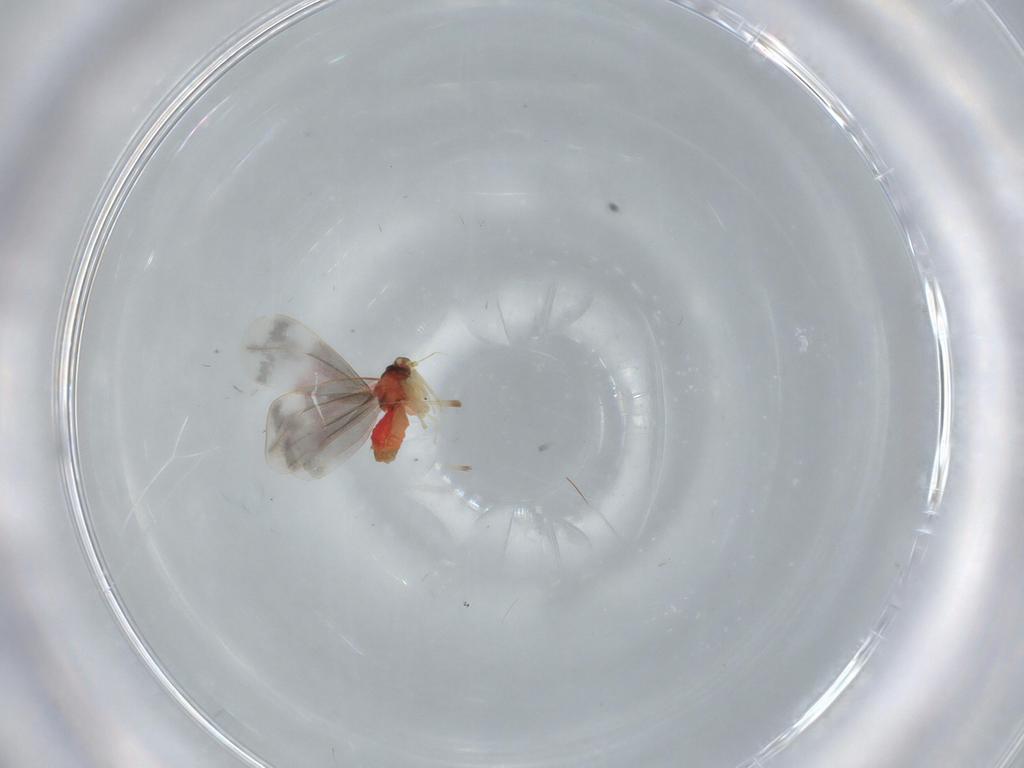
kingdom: Animalia
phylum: Arthropoda
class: Insecta
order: Hemiptera
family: Aleyrodidae
